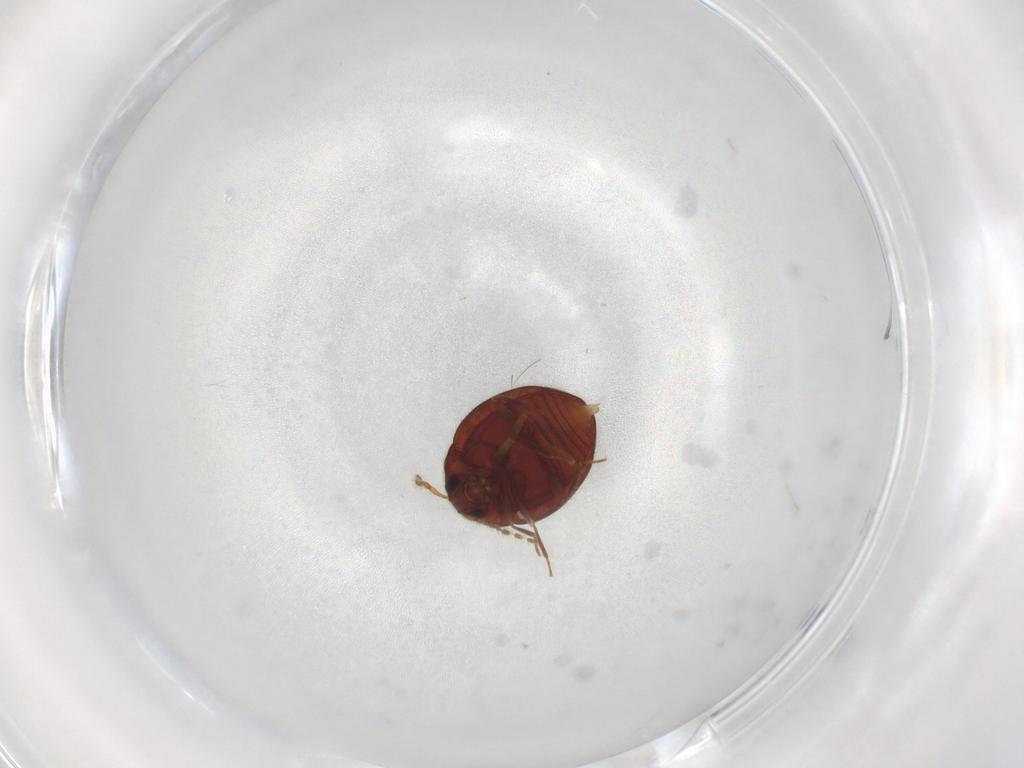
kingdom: Animalia
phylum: Arthropoda
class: Insecta
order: Coleoptera
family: Anamorphidae
